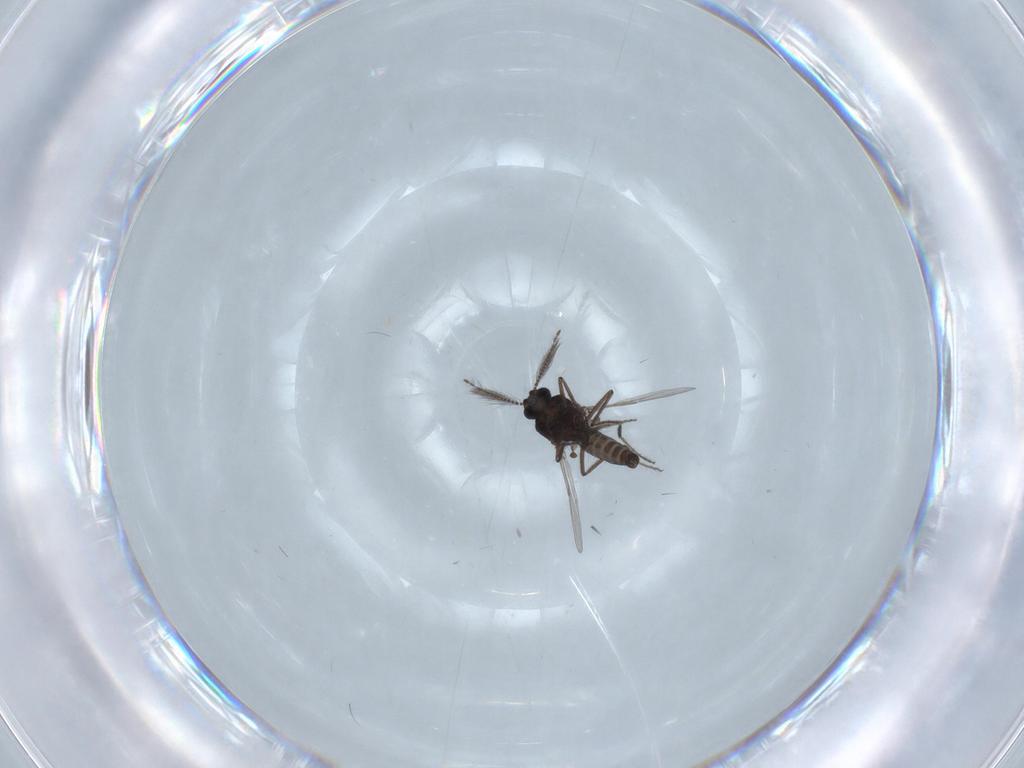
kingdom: Animalia
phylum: Arthropoda
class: Insecta
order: Diptera
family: Ceratopogonidae
